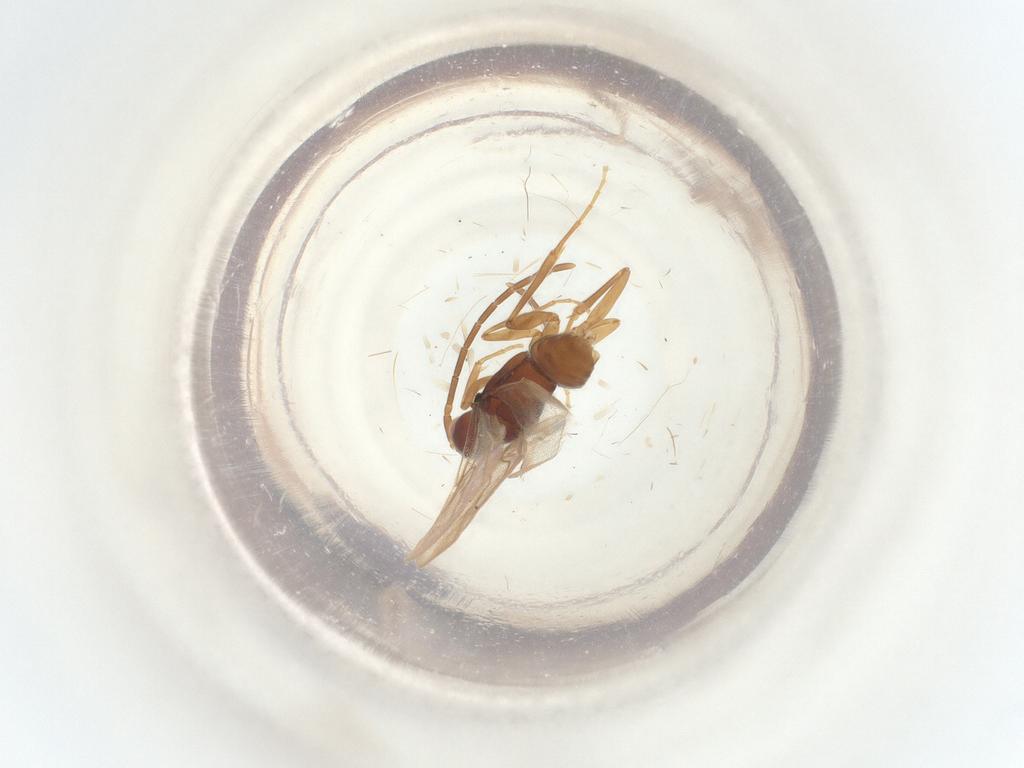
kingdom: Animalia
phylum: Arthropoda
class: Insecta
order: Hymenoptera
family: Embolemidae
